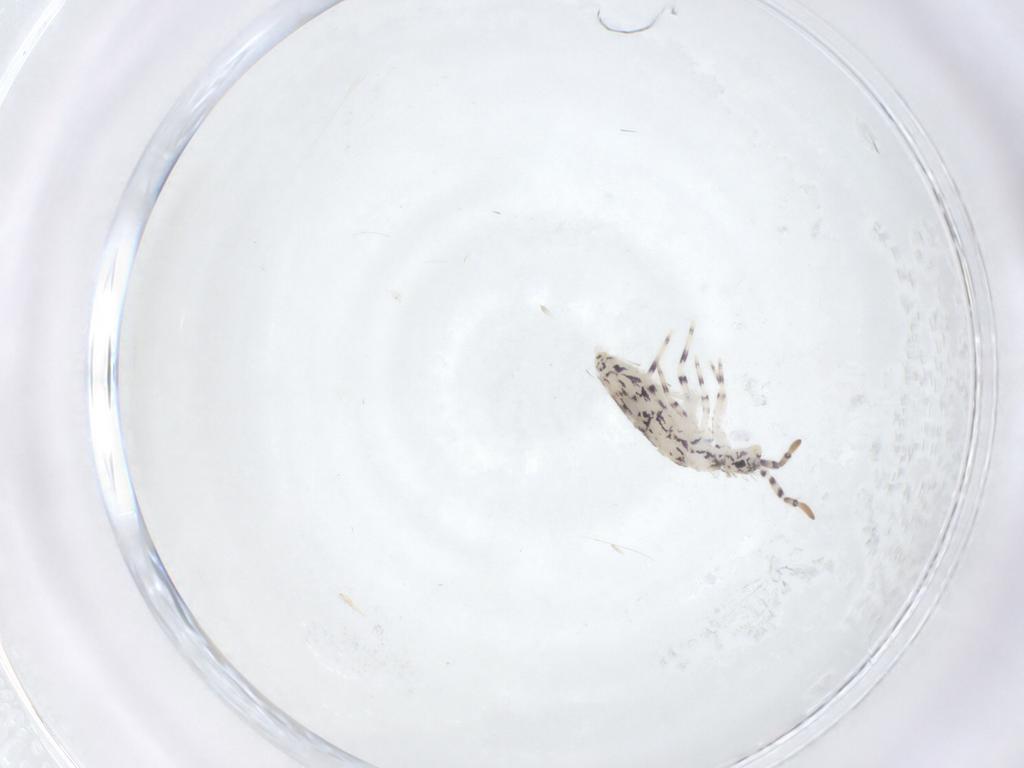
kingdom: Animalia
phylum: Arthropoda
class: Collembola
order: Entomobryomorpha
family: Entomobryidae
